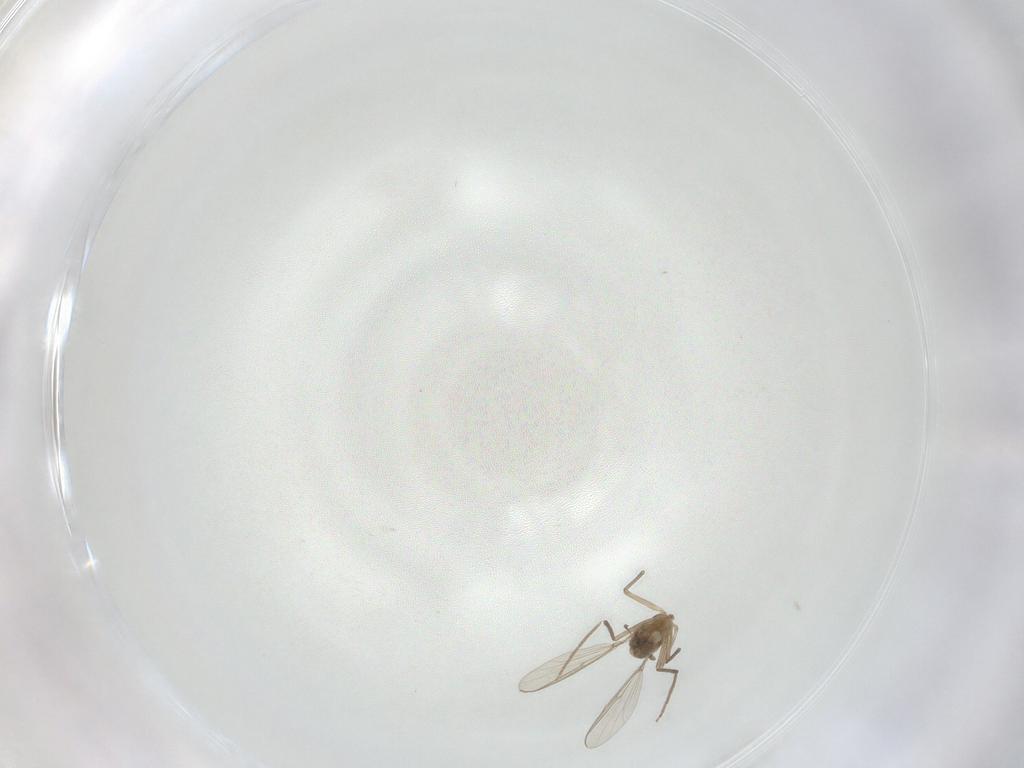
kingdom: Animalia
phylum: Arthropoda
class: Insecta
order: Diptera
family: Chironomidae
